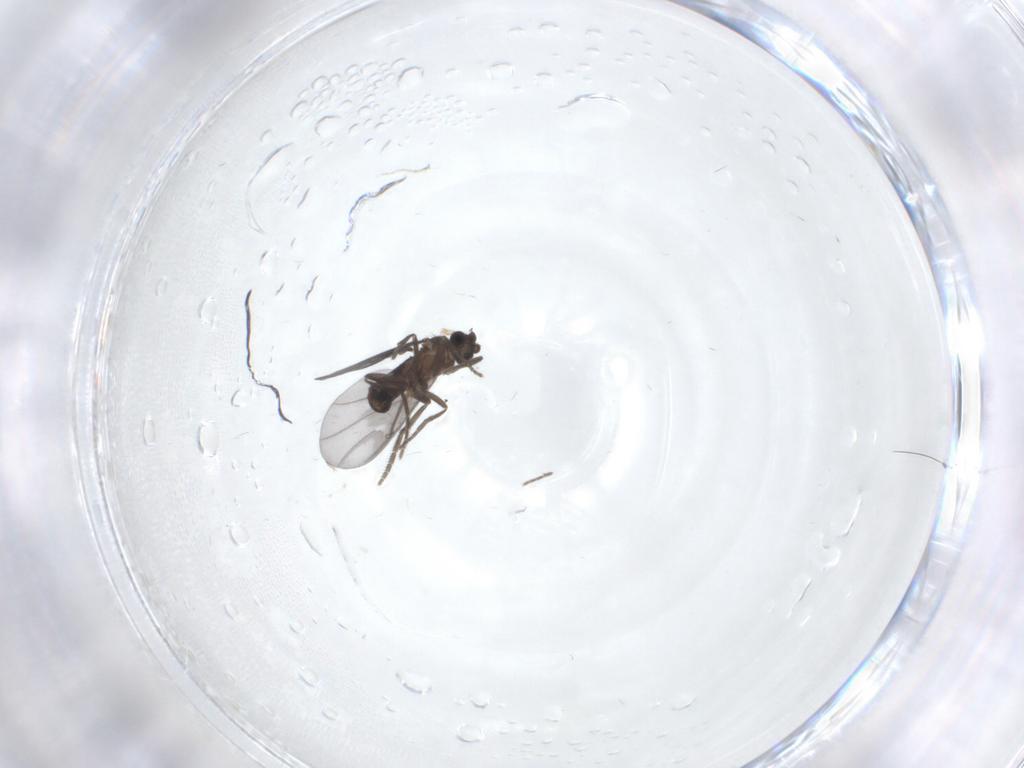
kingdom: Animalia
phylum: Arthropoda
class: Insecta
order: Diptera
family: Phoridae
